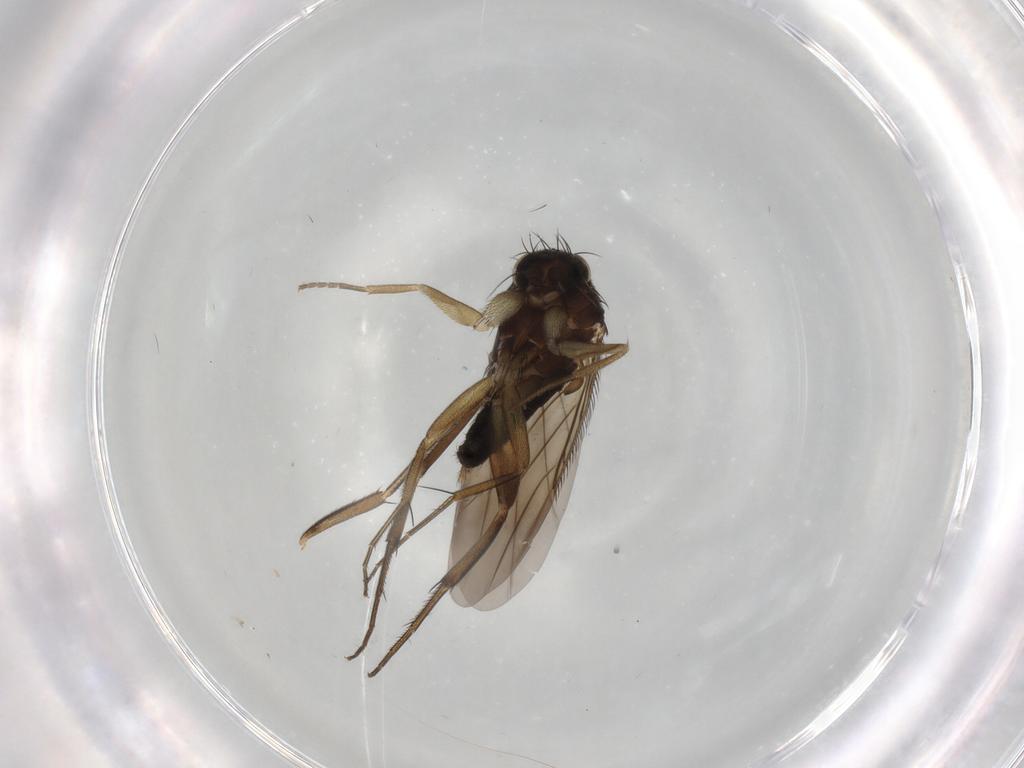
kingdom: Animalia
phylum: Arthropoda
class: Insecta
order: Diptera
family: Phoridae
